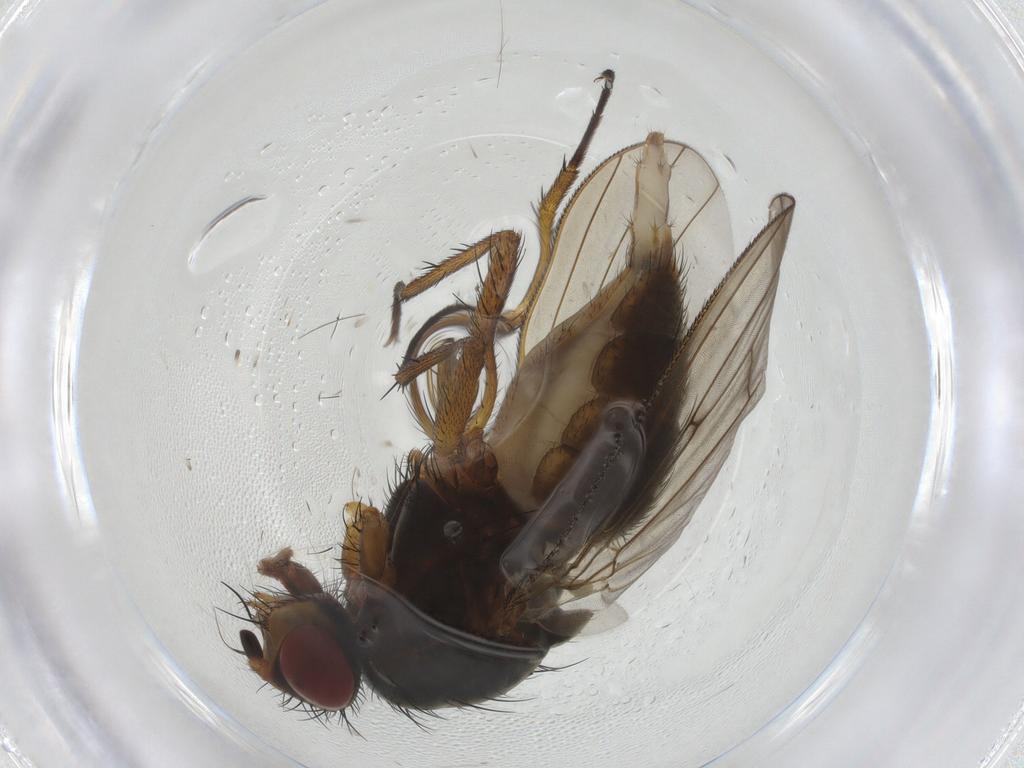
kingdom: Animalia
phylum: Arthropoda
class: Insecta
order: Diptera
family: Anthomyiidae
